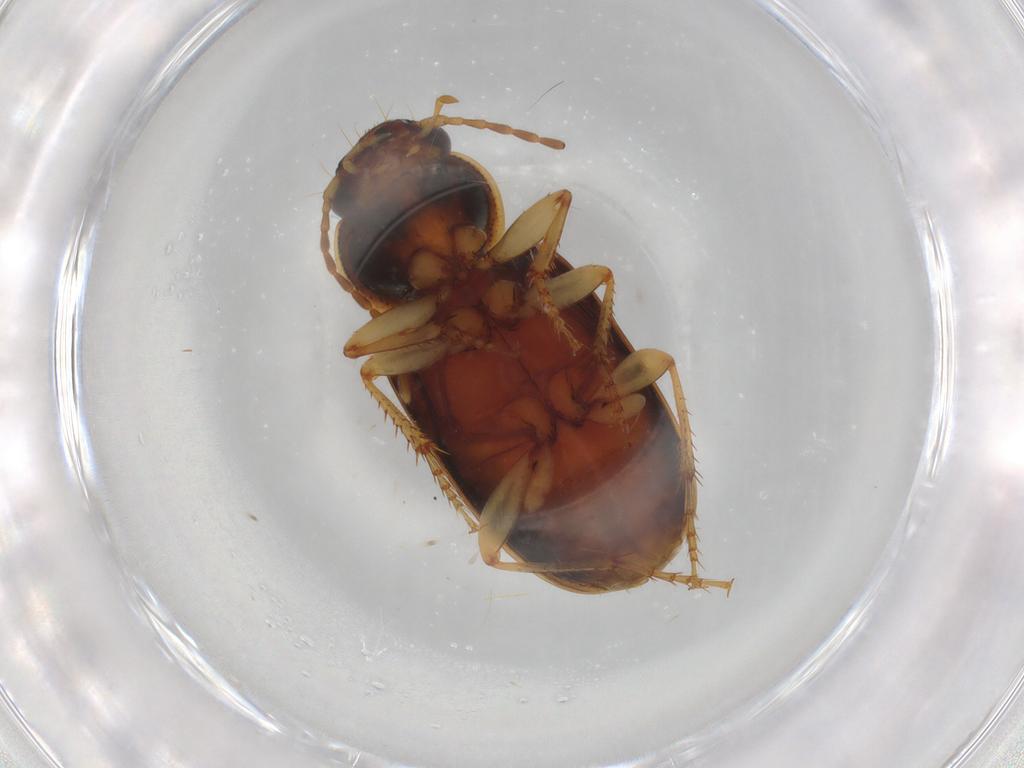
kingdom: Animalia
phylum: Arthropoda
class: Insecta
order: Coleoptera
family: Carabidae
